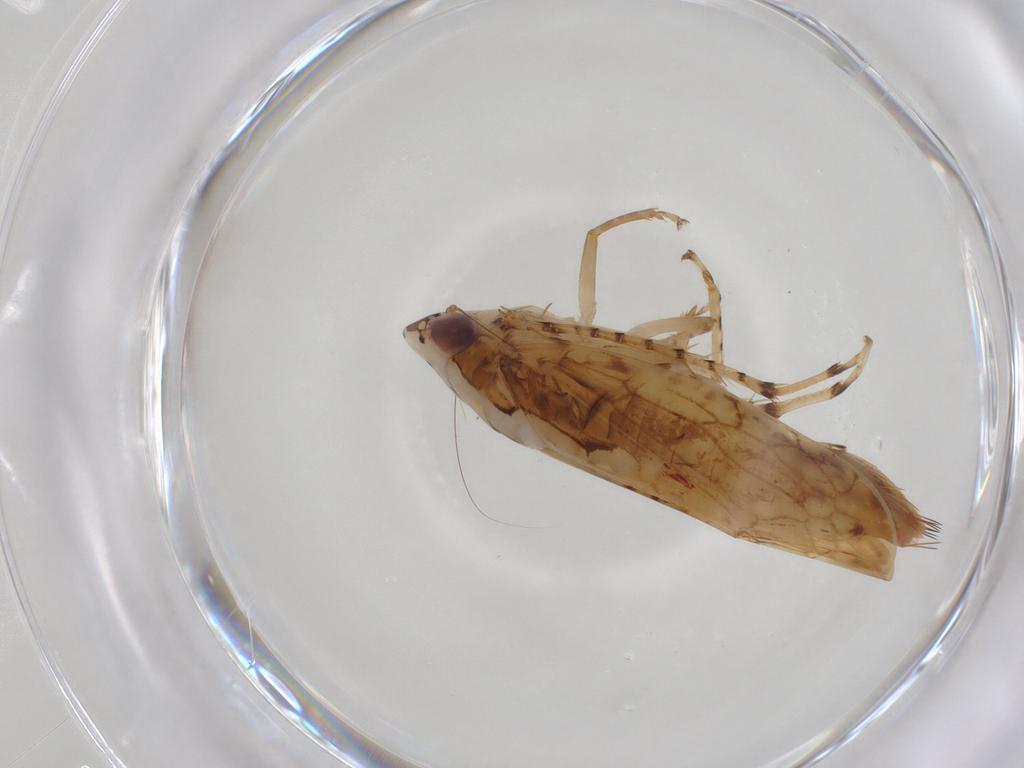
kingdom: Animalia
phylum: Arthropoda
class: Insecta
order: Hemiptera
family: Cicadellidae
